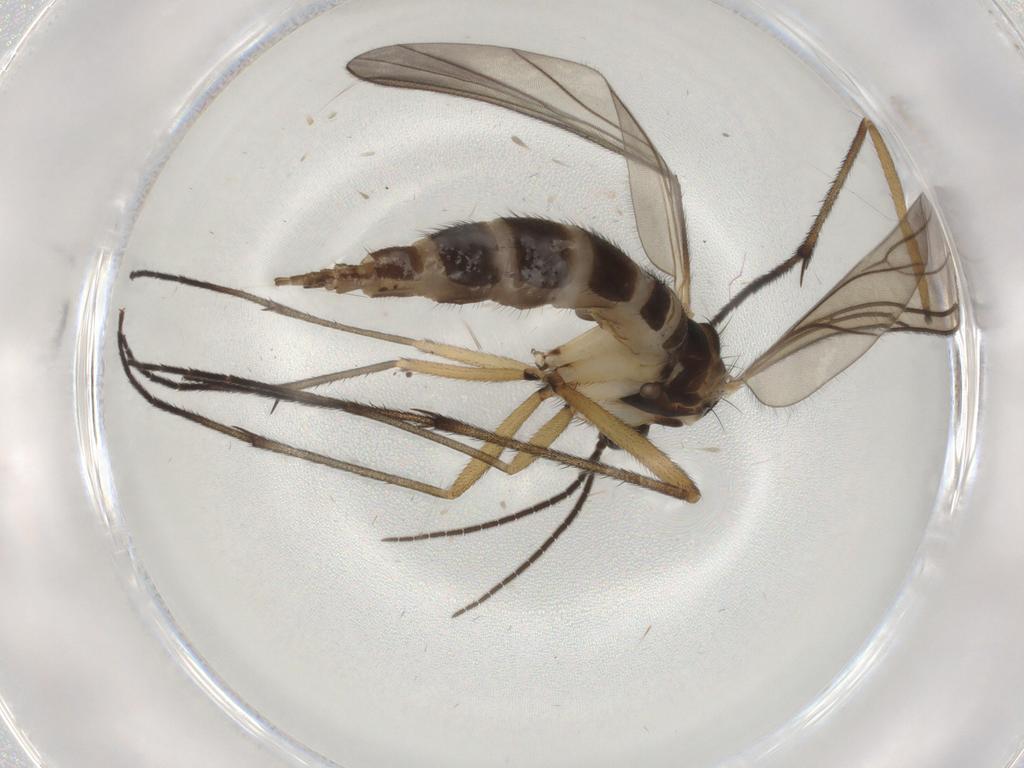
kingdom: Animalia
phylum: Arthropoda
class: Insecta
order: Diptera
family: Sciaridae
